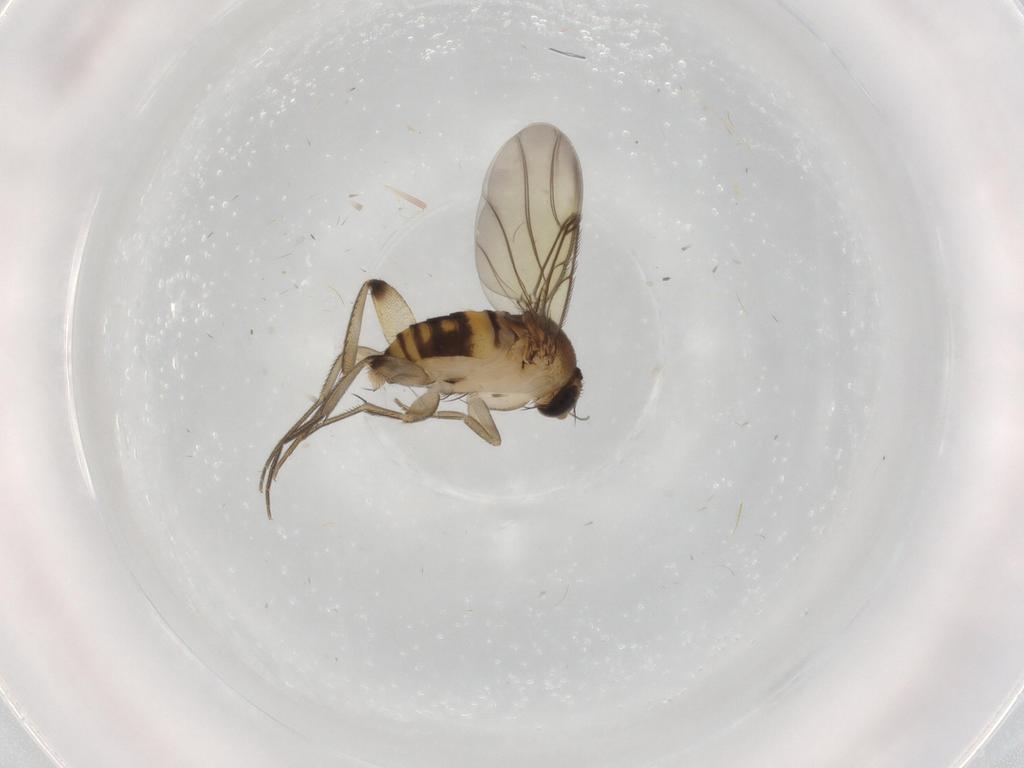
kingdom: Animalia
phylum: Arthropoda
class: Insecta
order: Diptera
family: Phoridae
